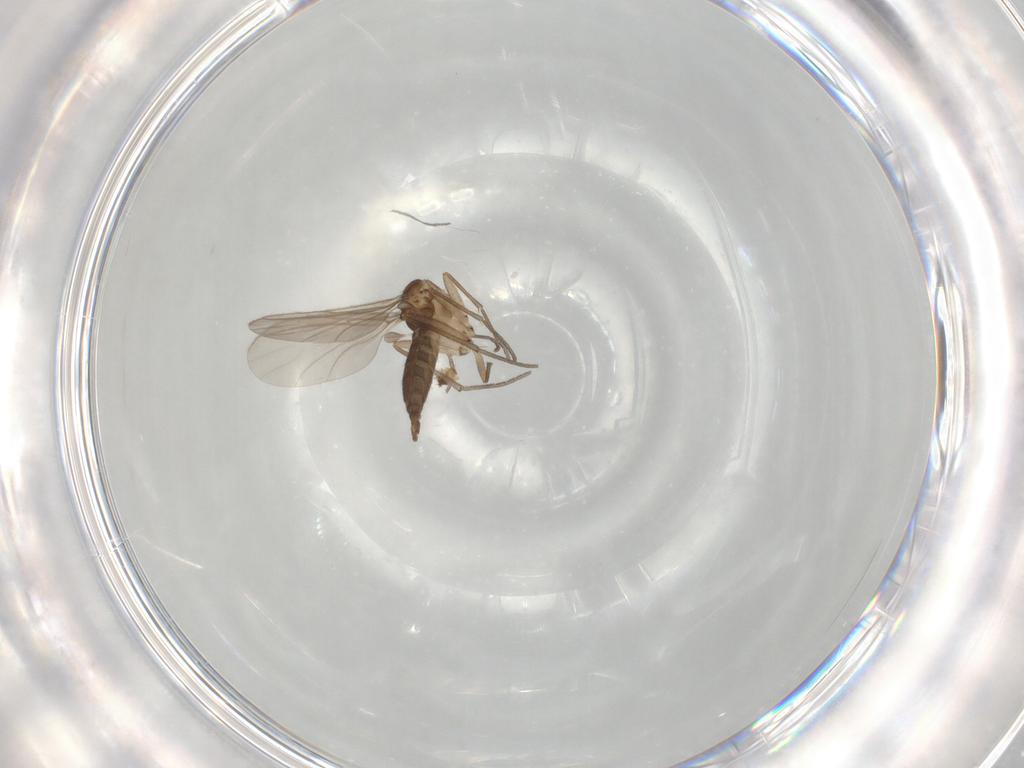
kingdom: Animalia
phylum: Arthropoda
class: Insecta
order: Diptera
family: Sciaridae
